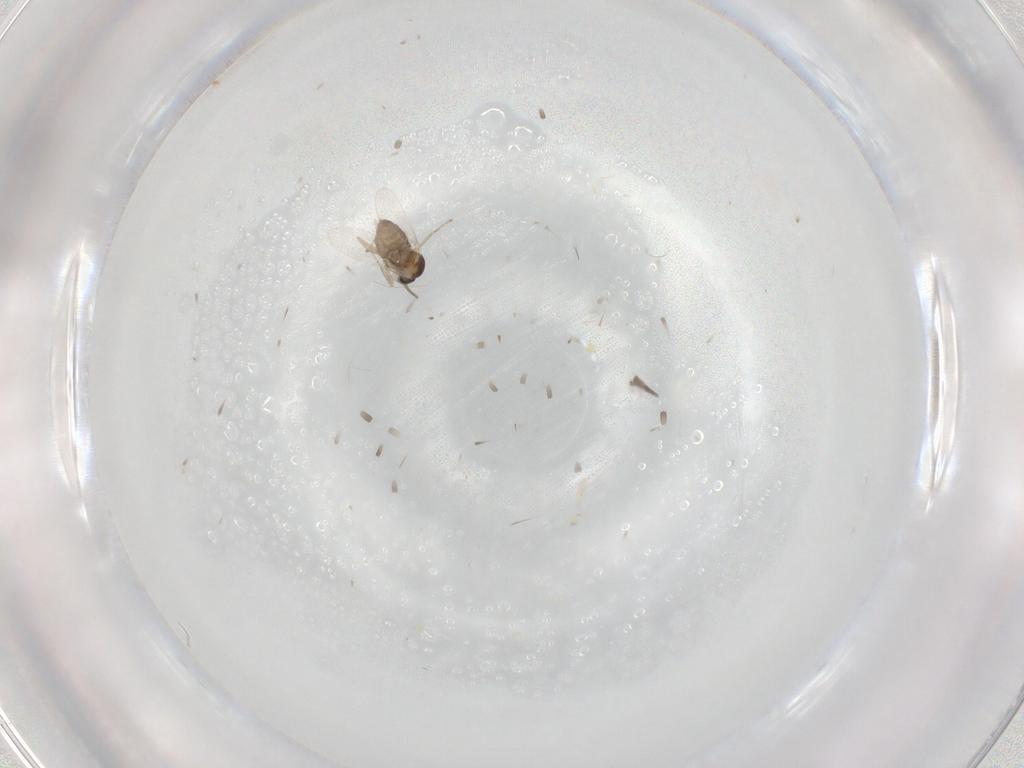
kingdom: Animalia
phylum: Arthropoda
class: Insecta
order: Diptera
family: Cecidomyiidae
